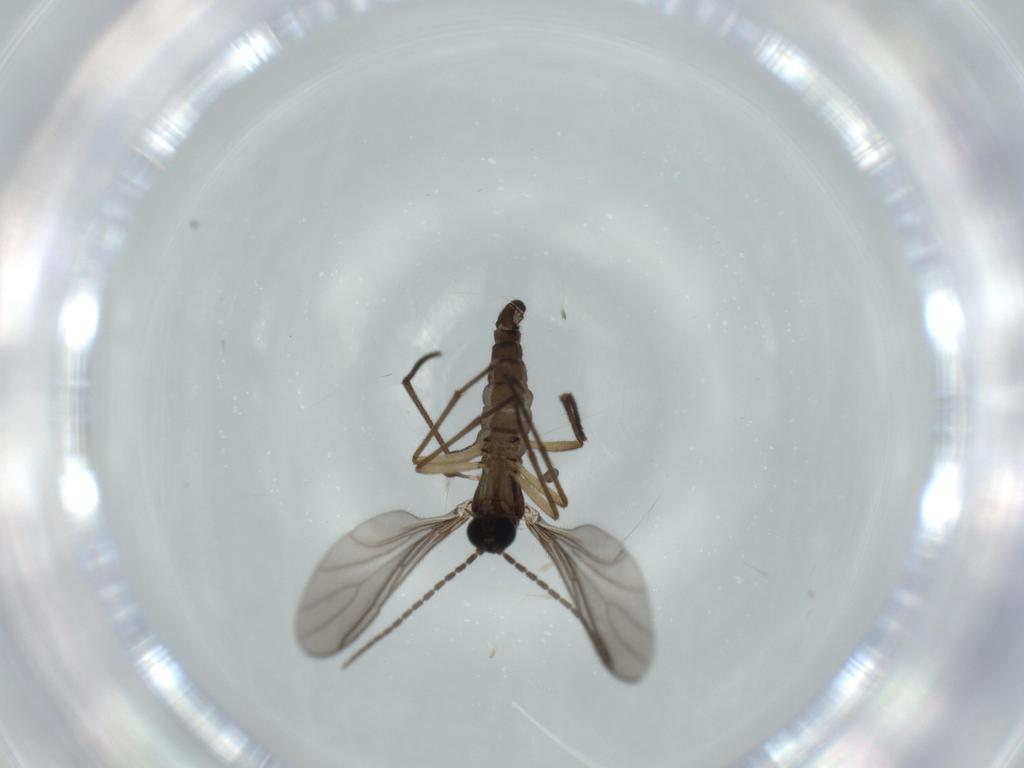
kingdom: Animalia
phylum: Arthropoda
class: Insecta
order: Diptera
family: Sciaridae
